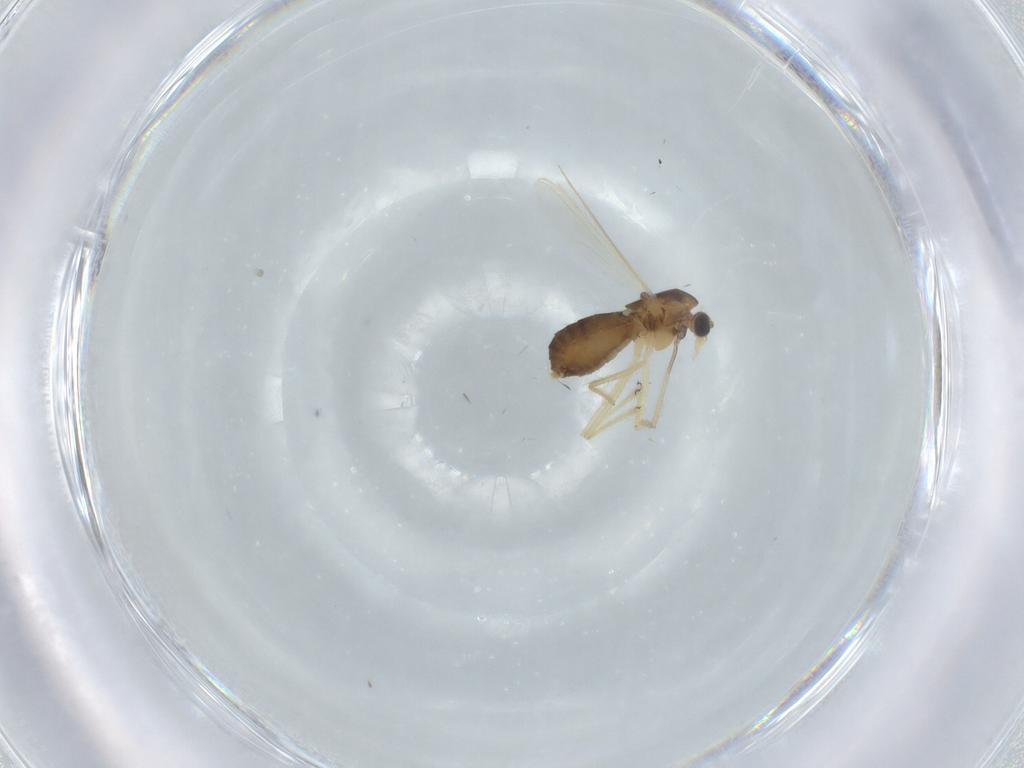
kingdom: Animalia
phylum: Arthropoda
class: Insecta
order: Diptera
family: Chironomidae
